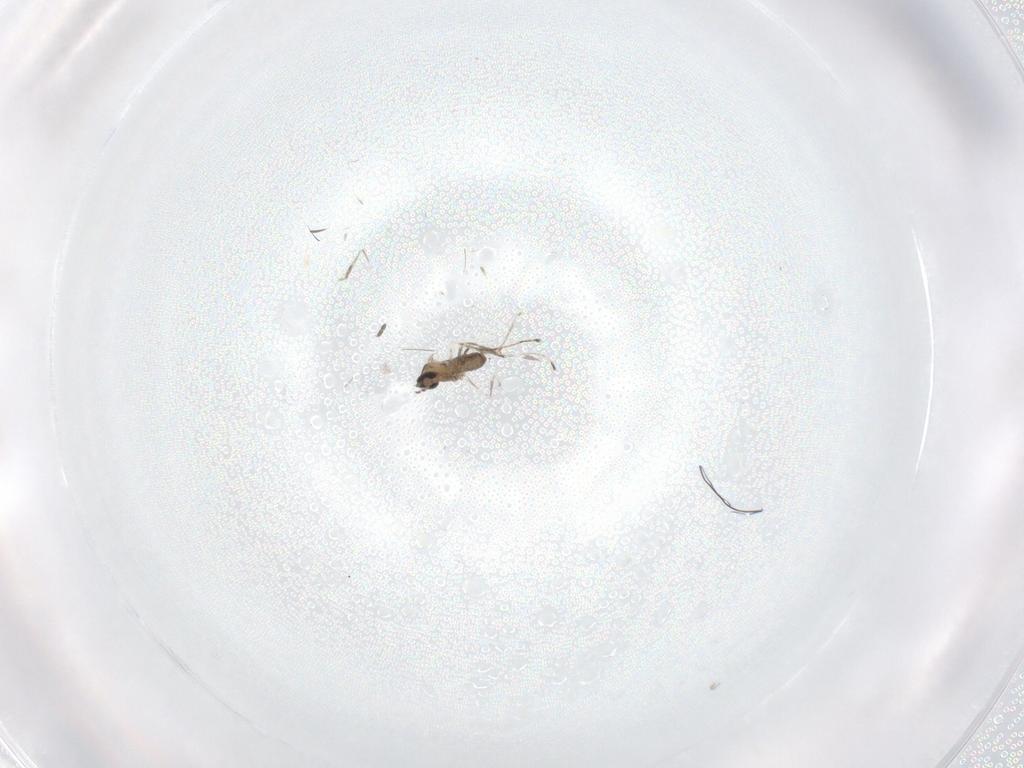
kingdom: Animalia
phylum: Arthropoda
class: Insecta
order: Diptera
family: Cecidomyiidae
